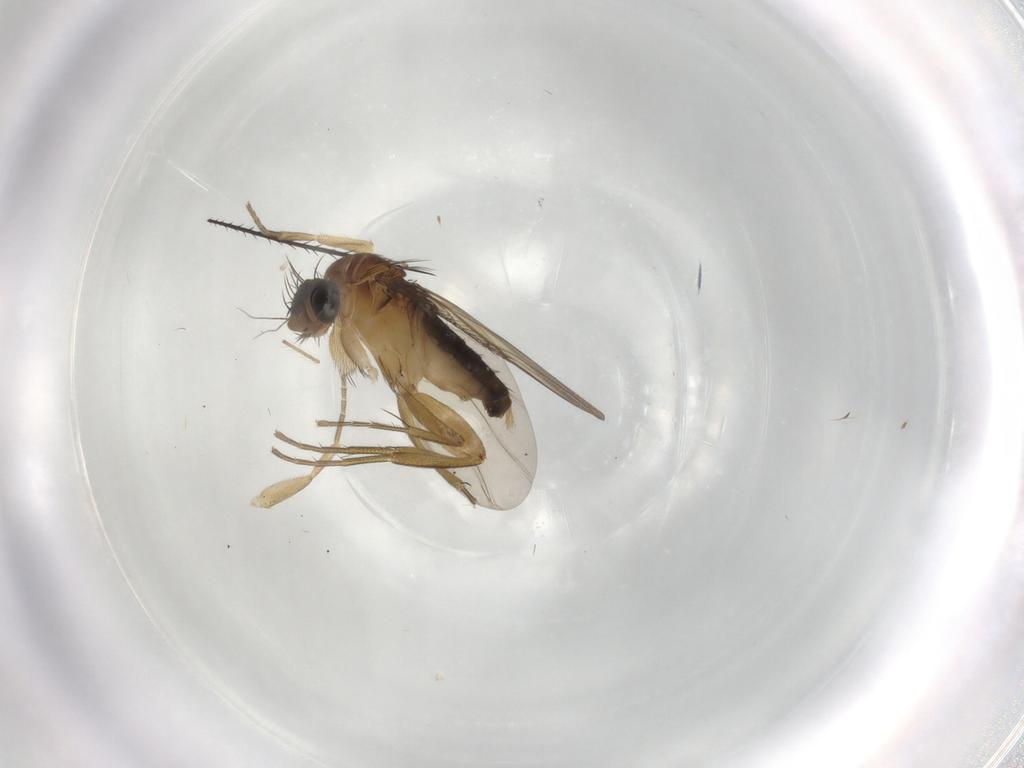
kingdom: Animalia
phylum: Arthropoda
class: Insecta
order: Diptera
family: Phoridae
